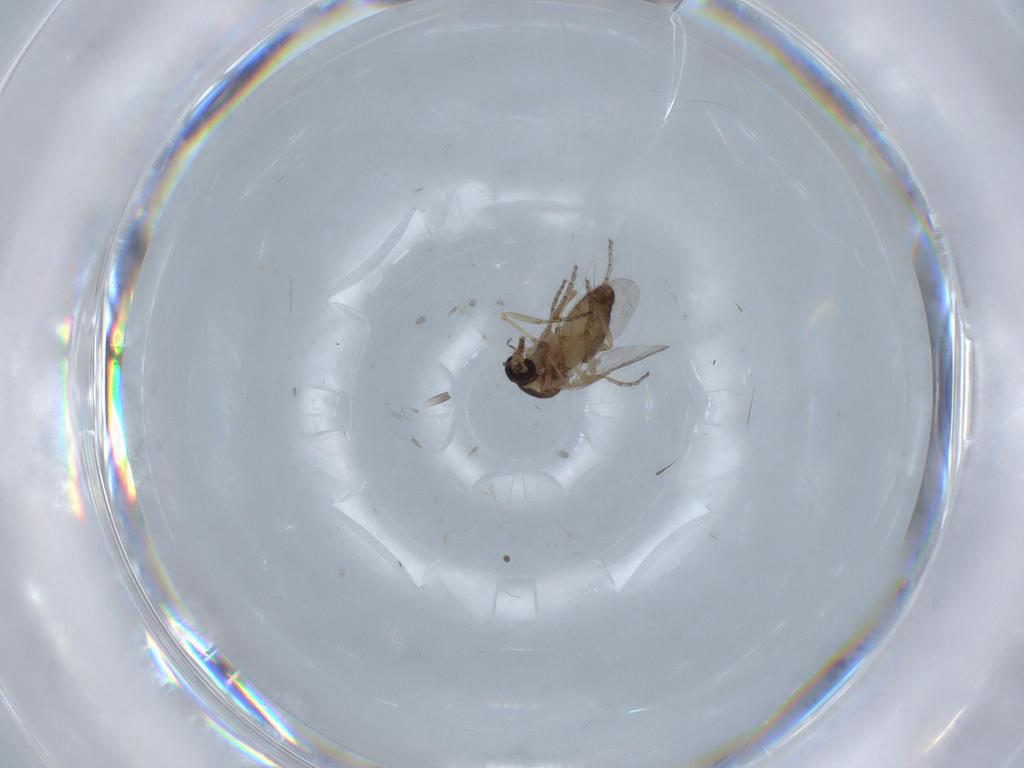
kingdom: Animalia
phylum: Arthropoda
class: Insecta
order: Diptera
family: Ceratopogonidae
